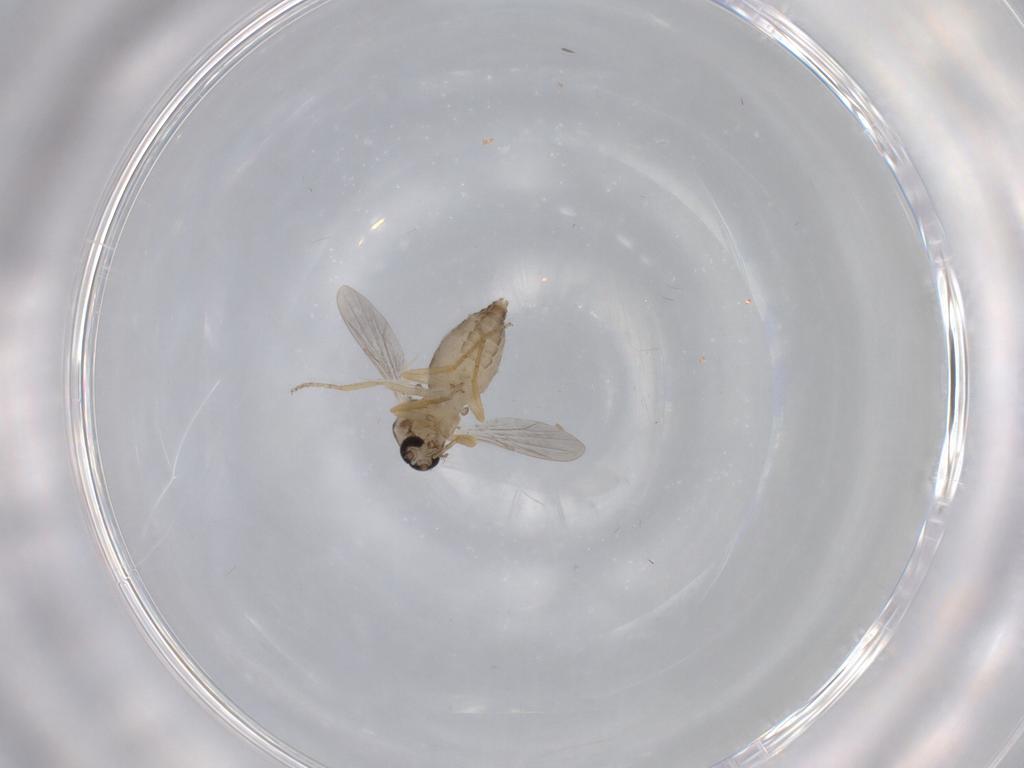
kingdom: Animalia
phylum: Arthropoda
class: Insecta
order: Diptera
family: Ceratopogonidae
